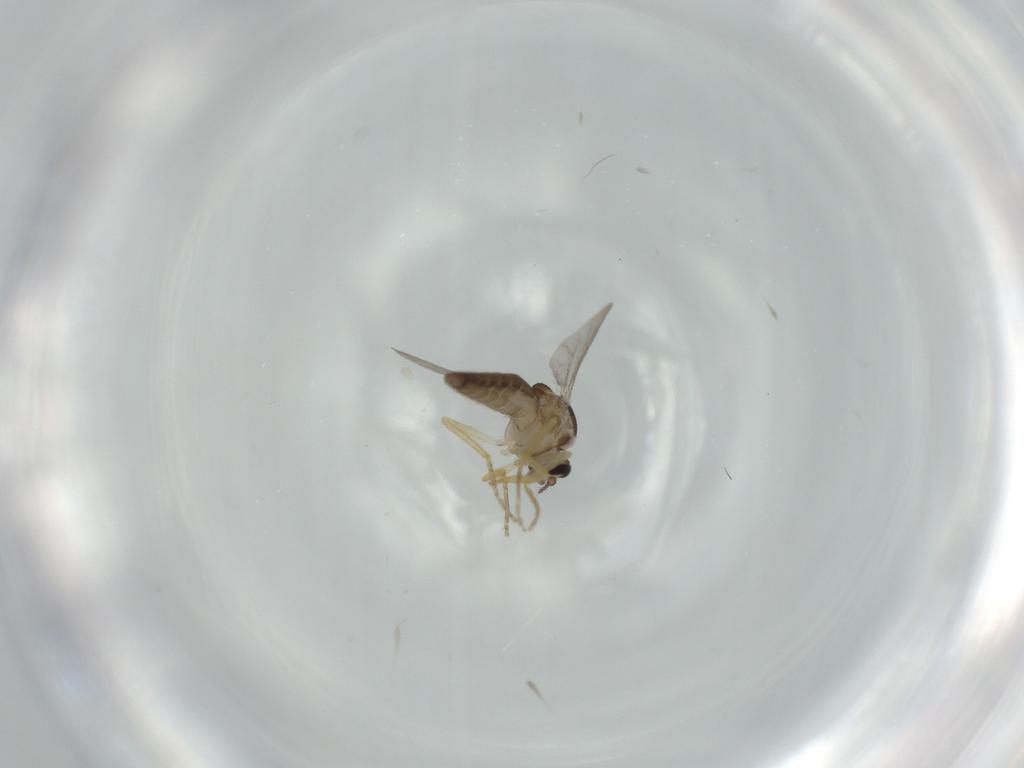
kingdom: Animalia
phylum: Arthropoda
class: Insecta
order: Diptera
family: Ceratopogonidae
